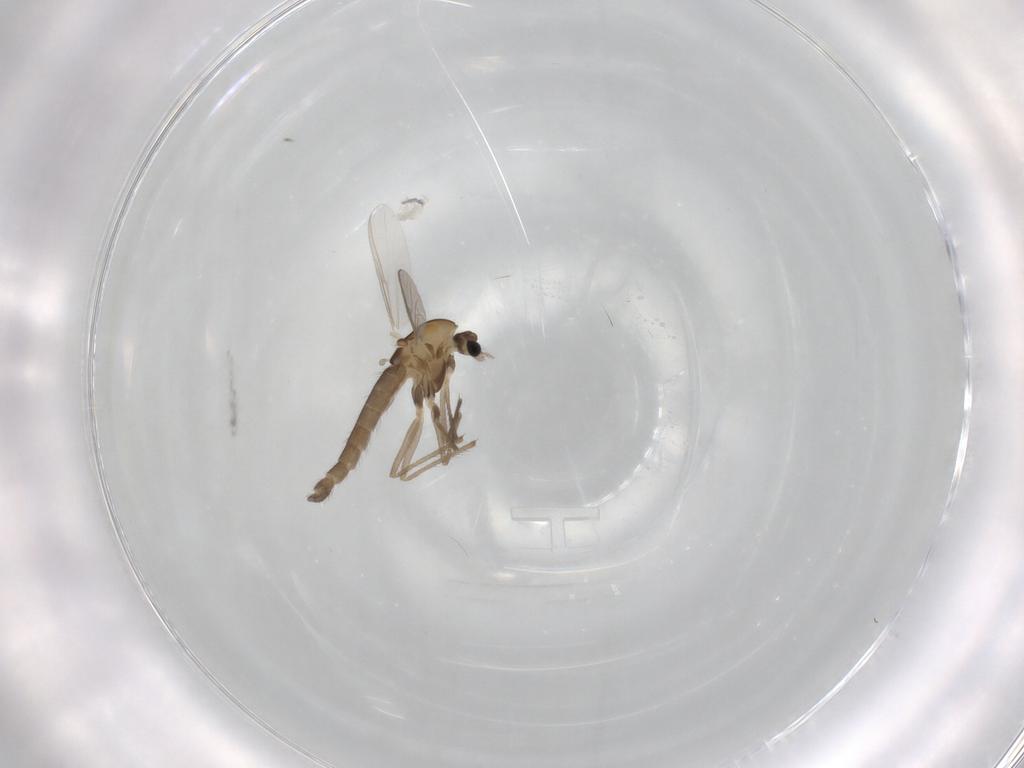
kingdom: Animalia
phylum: Arthropoda
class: Insecta
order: Diptera
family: Chironomidae
